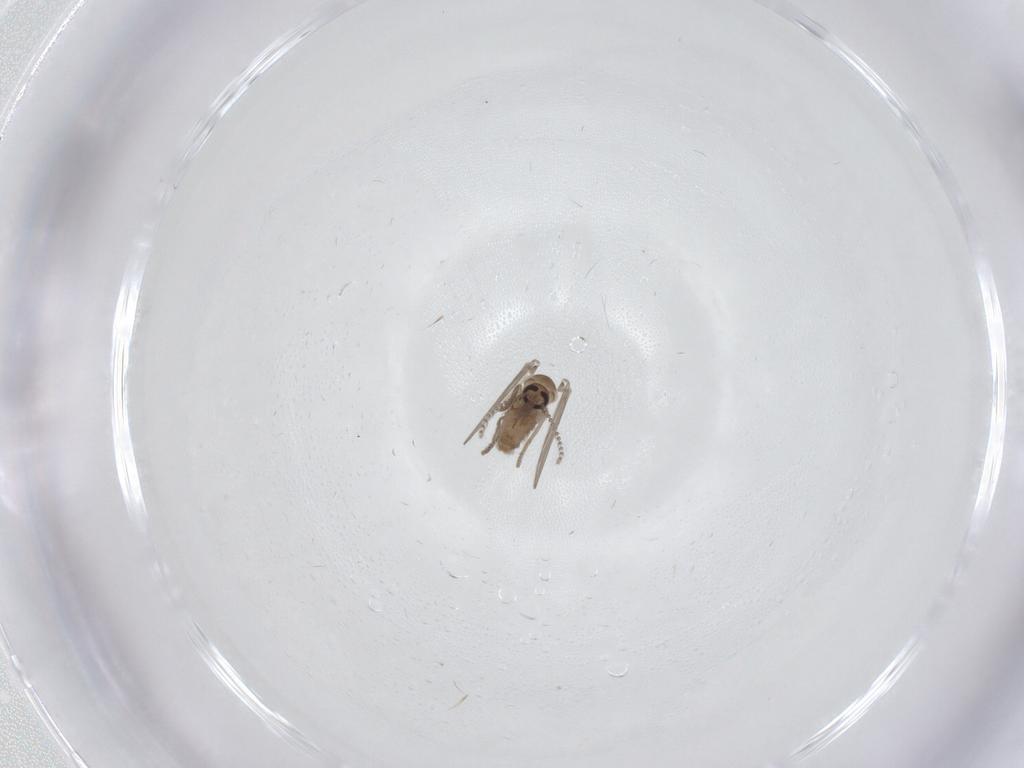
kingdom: Animalia
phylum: Arthropoda
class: Insecta
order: Diptera
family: Psychodidae
